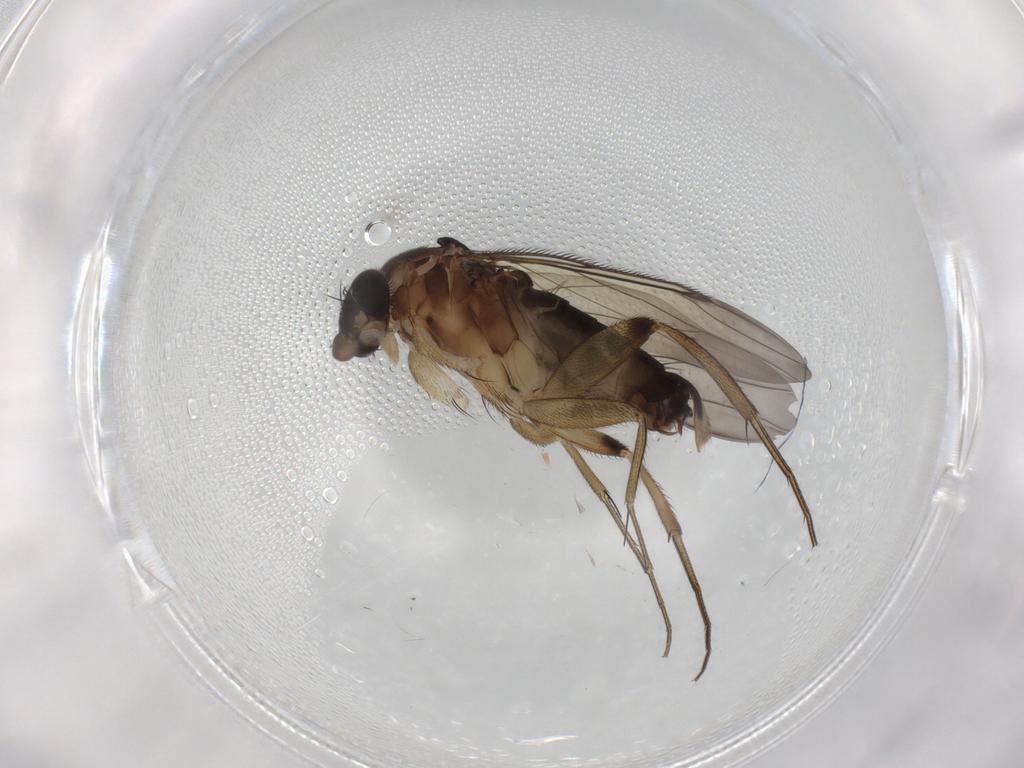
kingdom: Animalia
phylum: Arthropoda
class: Insecta
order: Diptera
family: Phoridae
